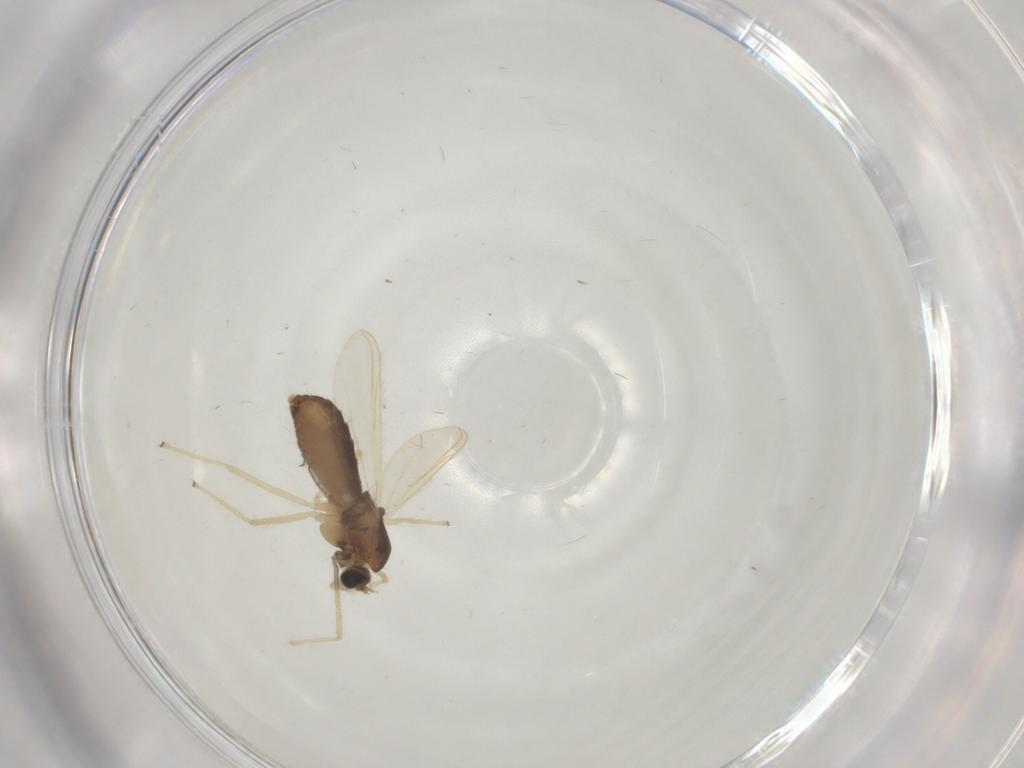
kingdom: Animalia
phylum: Arthropoda
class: Insecta
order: Diptera
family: Chironomidae
